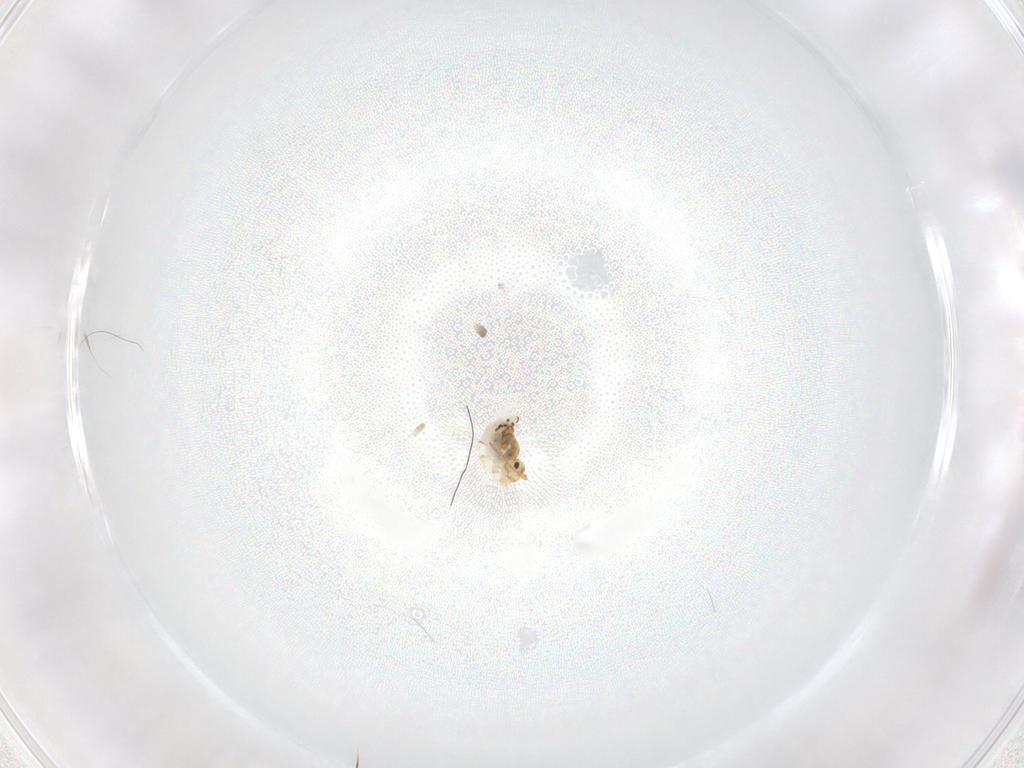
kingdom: Animalia
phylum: Arthropoda
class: Collembola
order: Symphypleona
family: Bourletiellidae
